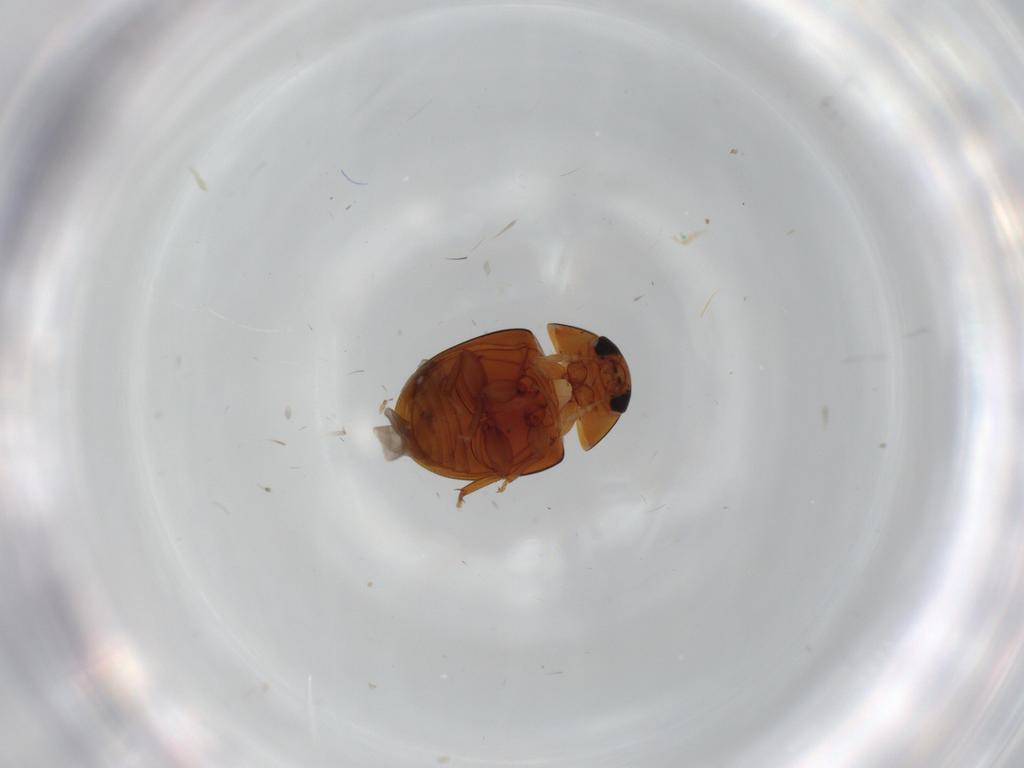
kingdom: Animalia
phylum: Arthropoda
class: Insecta
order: Coleoptera
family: Phalacridae
